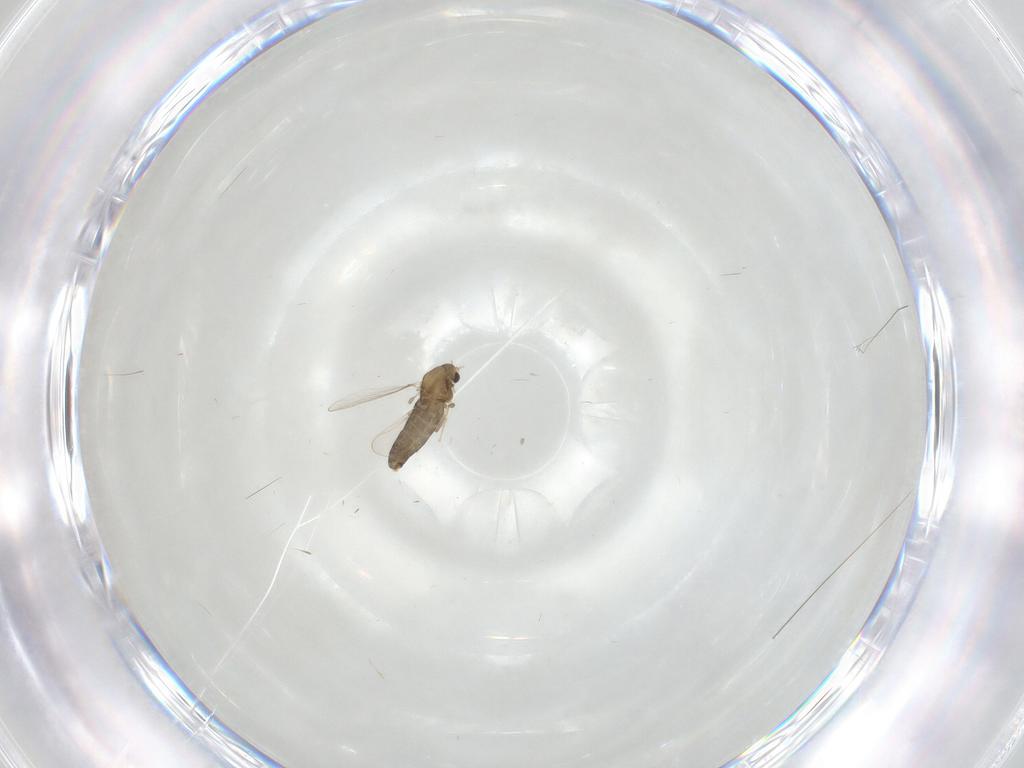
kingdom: Animalia
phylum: Arthropoda
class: Insecta
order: Diptera
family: Chironomidae
